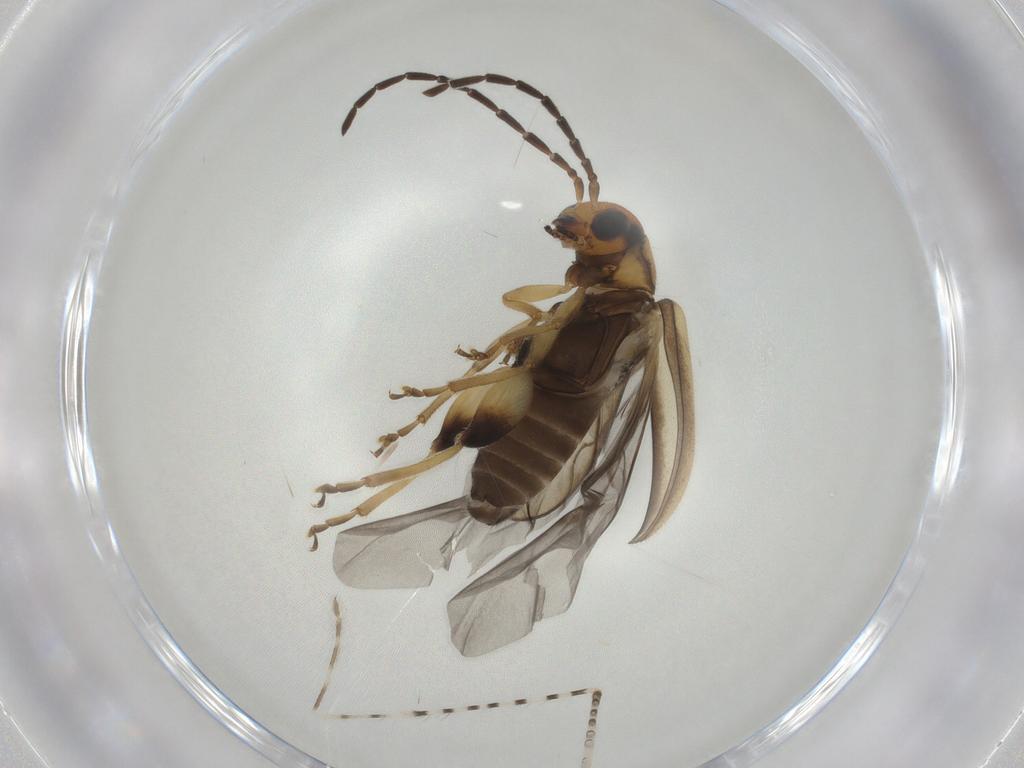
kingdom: Animalia
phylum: Arthropoda
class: Insecta
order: Coleoptera
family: Chrysomelidae
